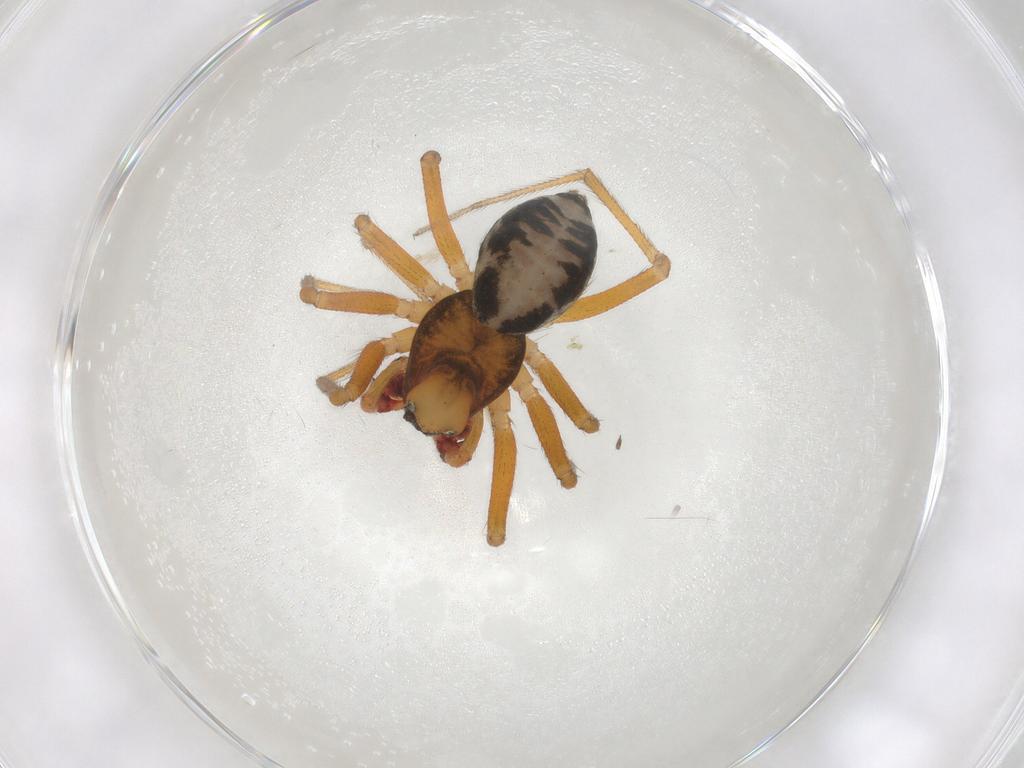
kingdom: Animalia
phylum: Arthropoda
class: Arachnida
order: Araneae
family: Linyphiidae
